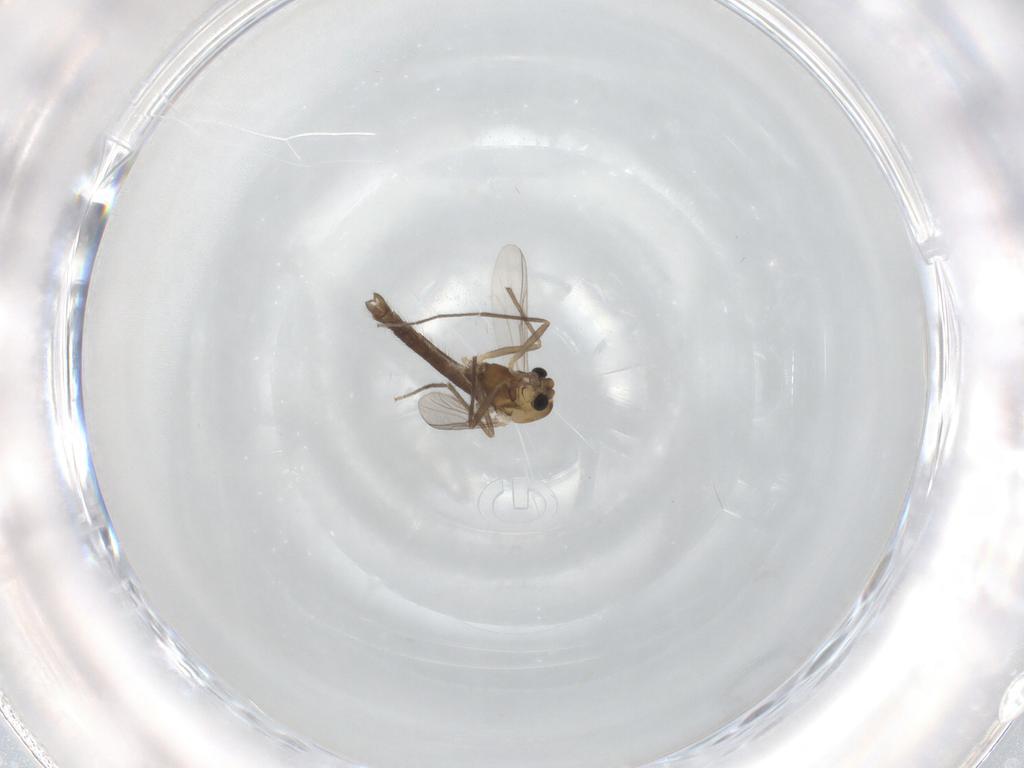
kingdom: Animalia
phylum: Arthropoda
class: Insecta
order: Diptera
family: Chironomidae
